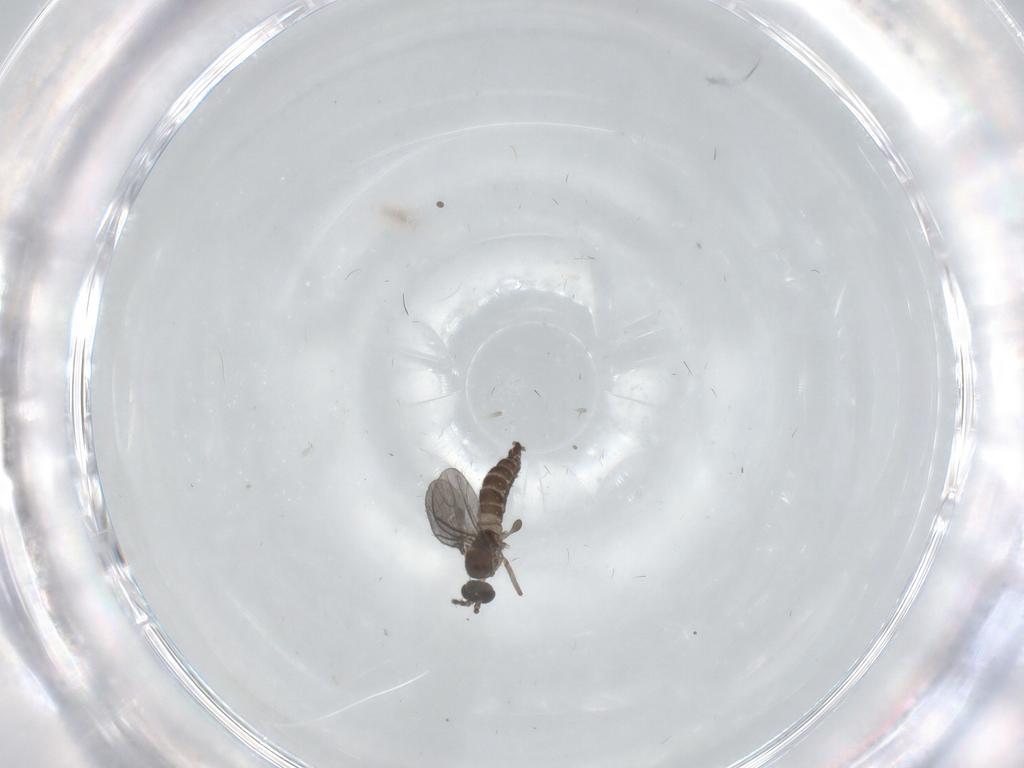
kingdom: Animalia
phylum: Arthropoda
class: Insecta
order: Diptera
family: Sciaridae
